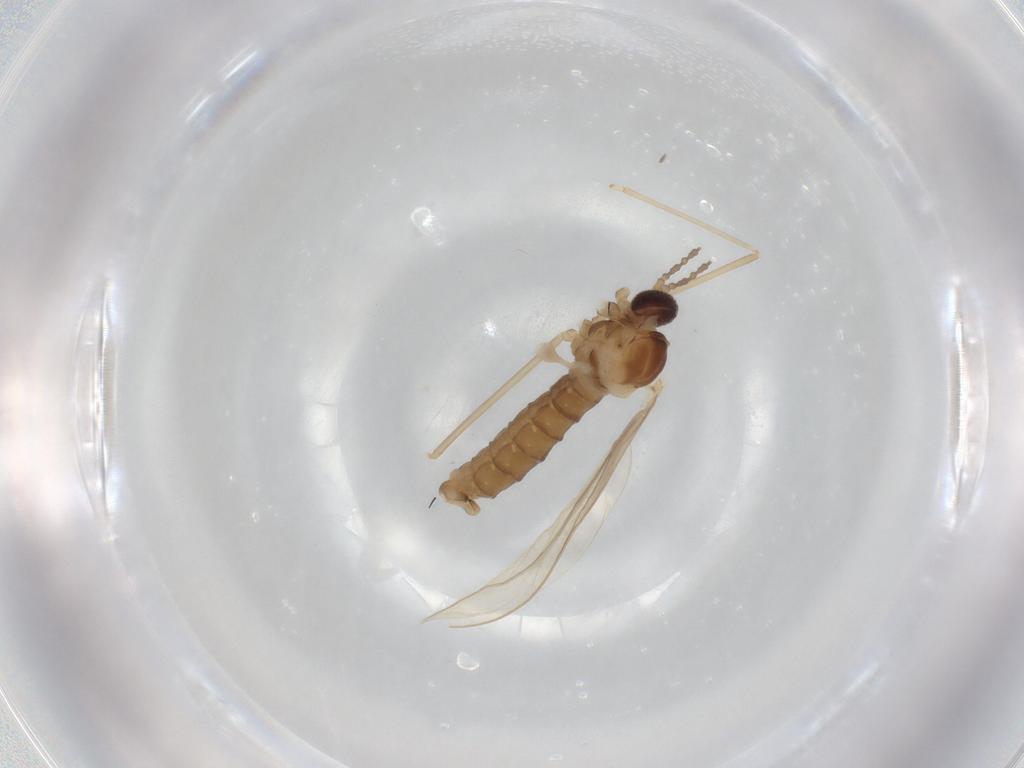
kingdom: Animalia
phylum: Arthropoda
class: Insecta
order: Diptera
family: Cecidomyiidae
